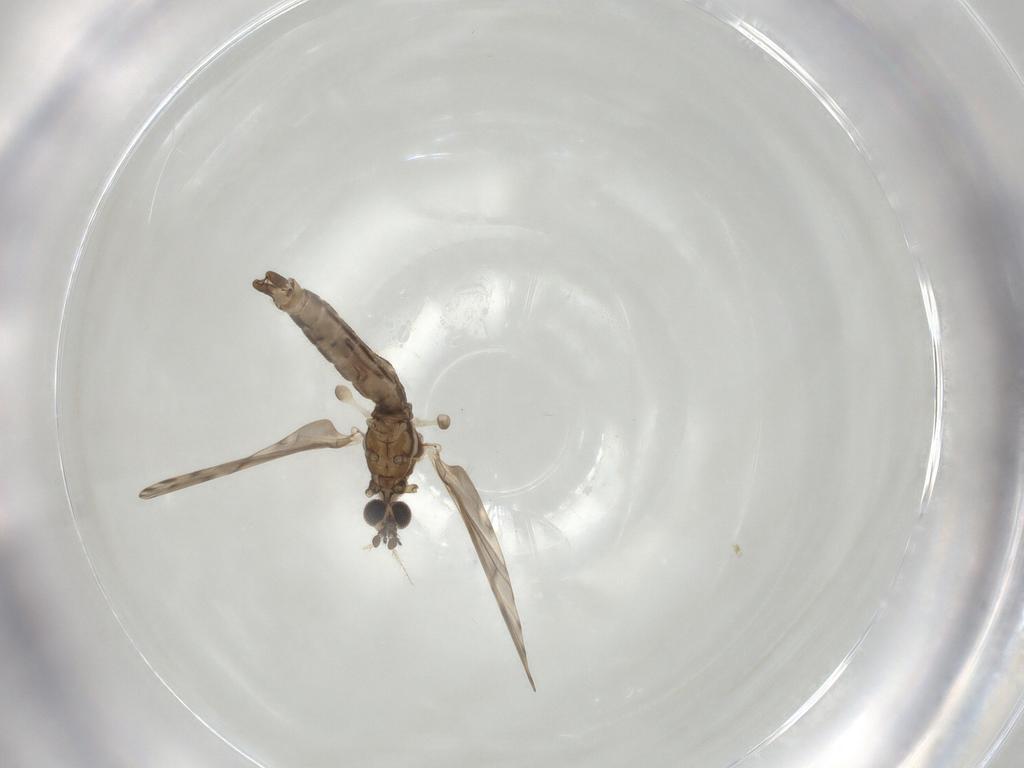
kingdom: Animalia
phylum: Arthropoda
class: Insecta
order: Diptera
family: Limoniidae
